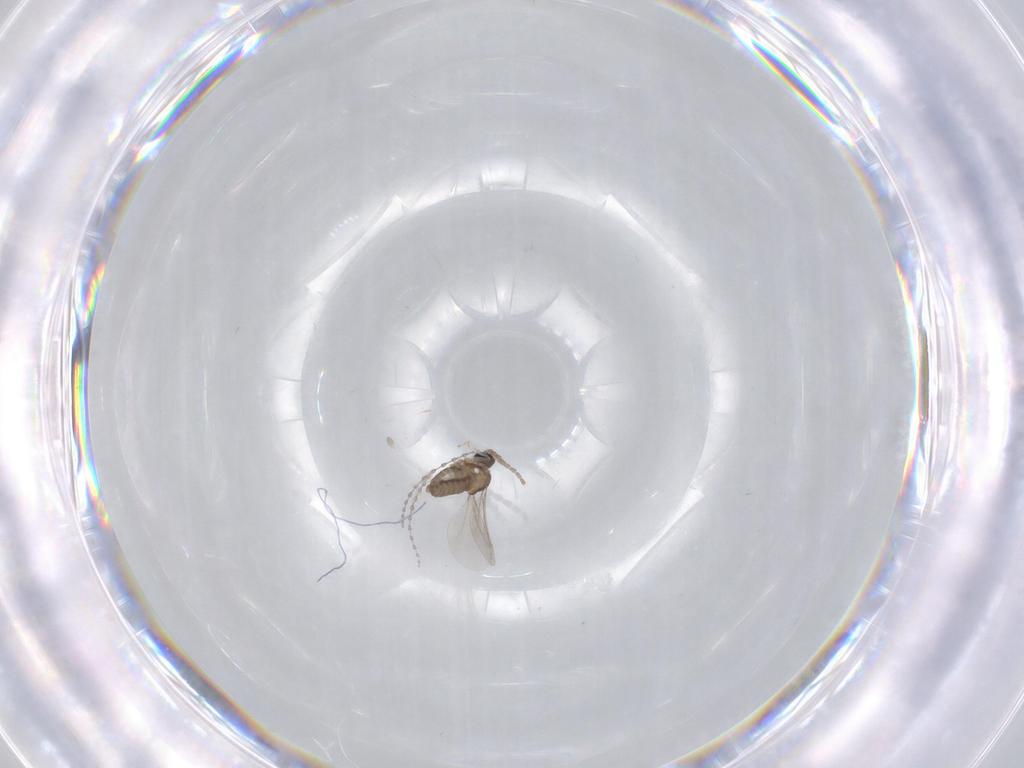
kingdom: Animalia
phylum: Arthropoda
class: Insecta
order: Diptera
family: Cecidomyiidae
